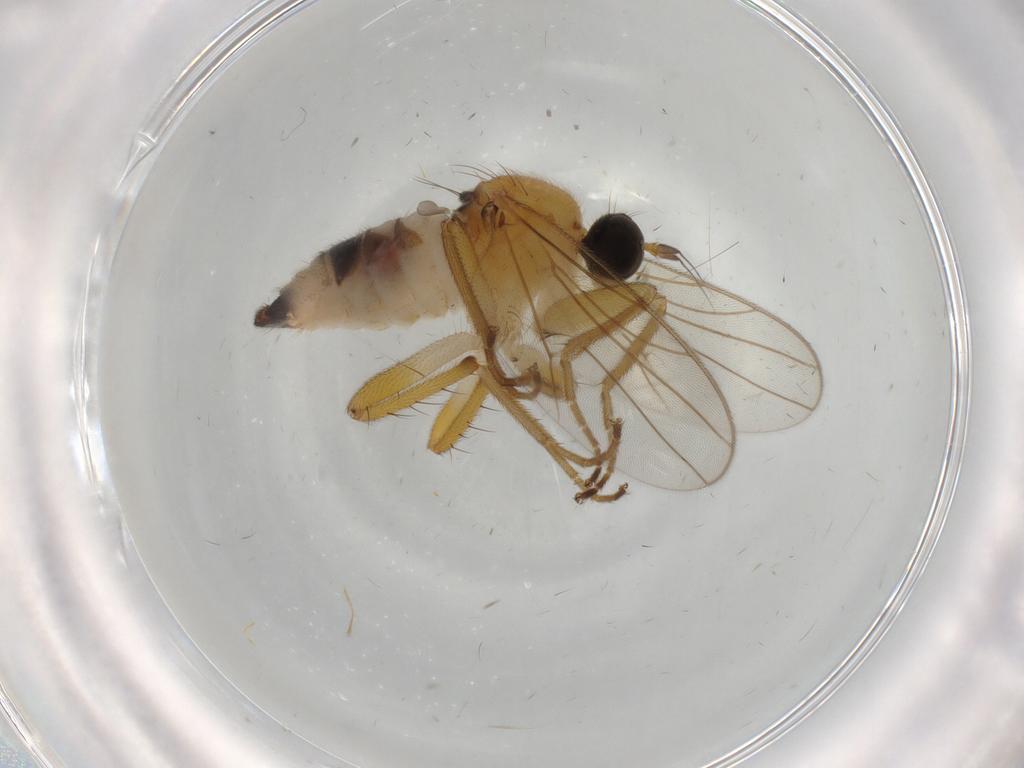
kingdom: Animalia
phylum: Arthropoda
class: Insecta
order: Diptera
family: Hybotidae
